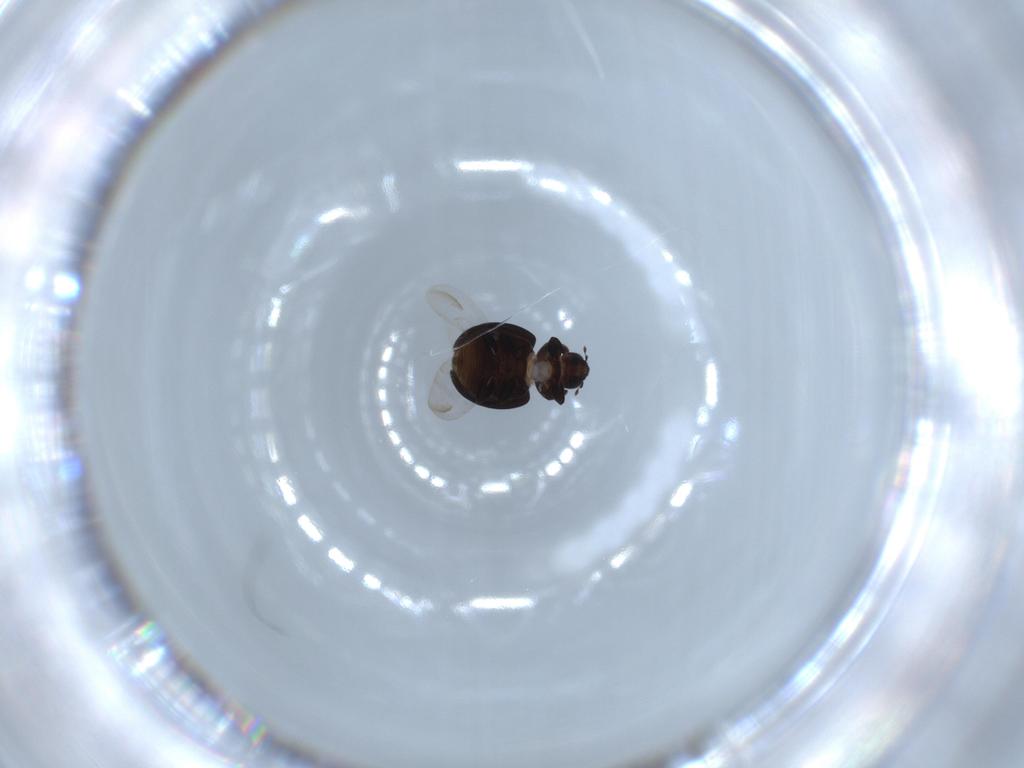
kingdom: Animalia
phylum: Arthropoda
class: Insecta
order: Coleoptera
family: Coccinellidae
